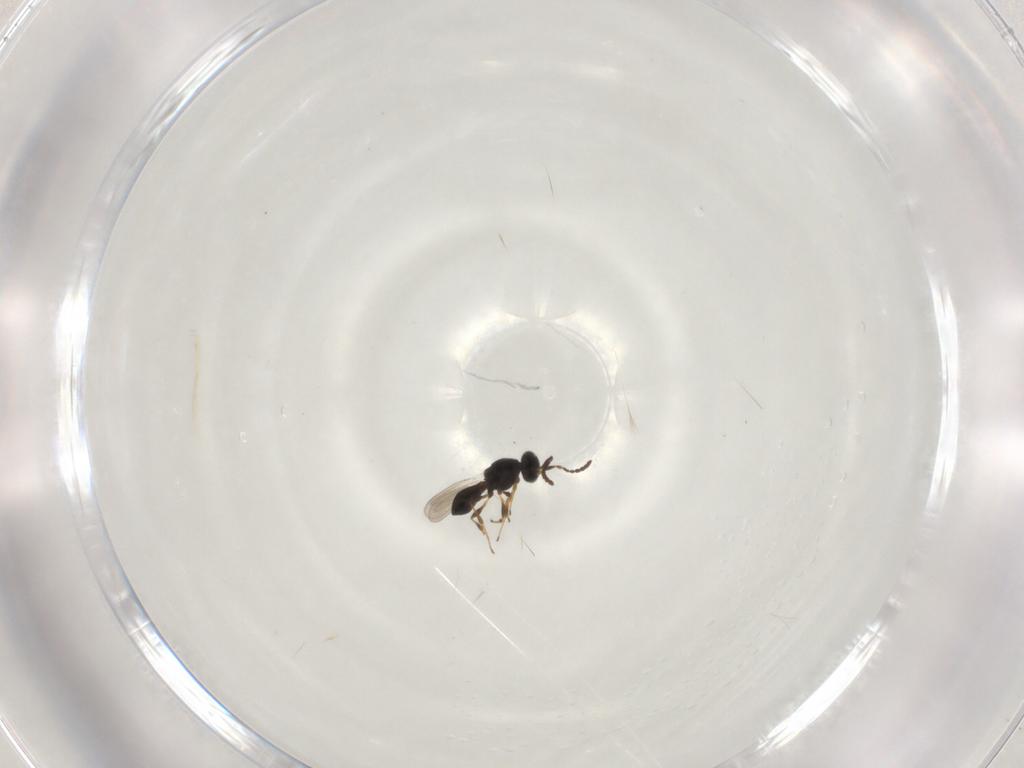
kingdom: Animalia
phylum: Arthropoda
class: Insecta
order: Hymenoptera
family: Platygastridae
